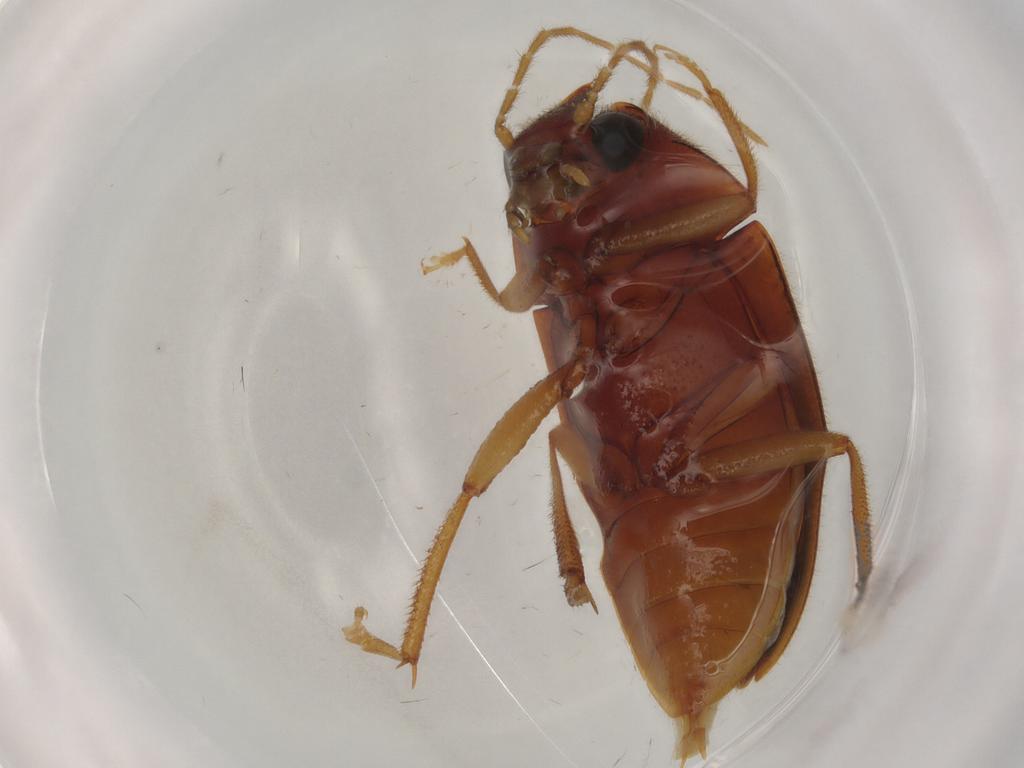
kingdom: Animalia
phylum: Arthropoda
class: Insecta
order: Coleoptera
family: Ptilodactylidae
